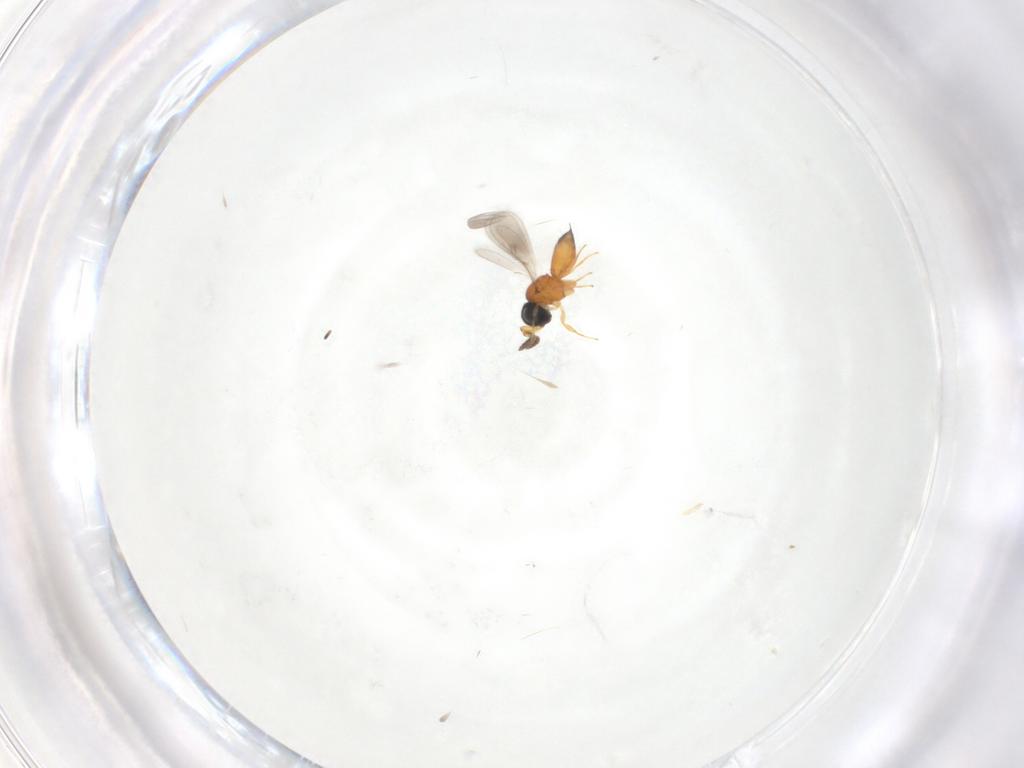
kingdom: Animalia
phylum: Arthropoda
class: Insecta
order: Hymenoptera
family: Scelionidae
